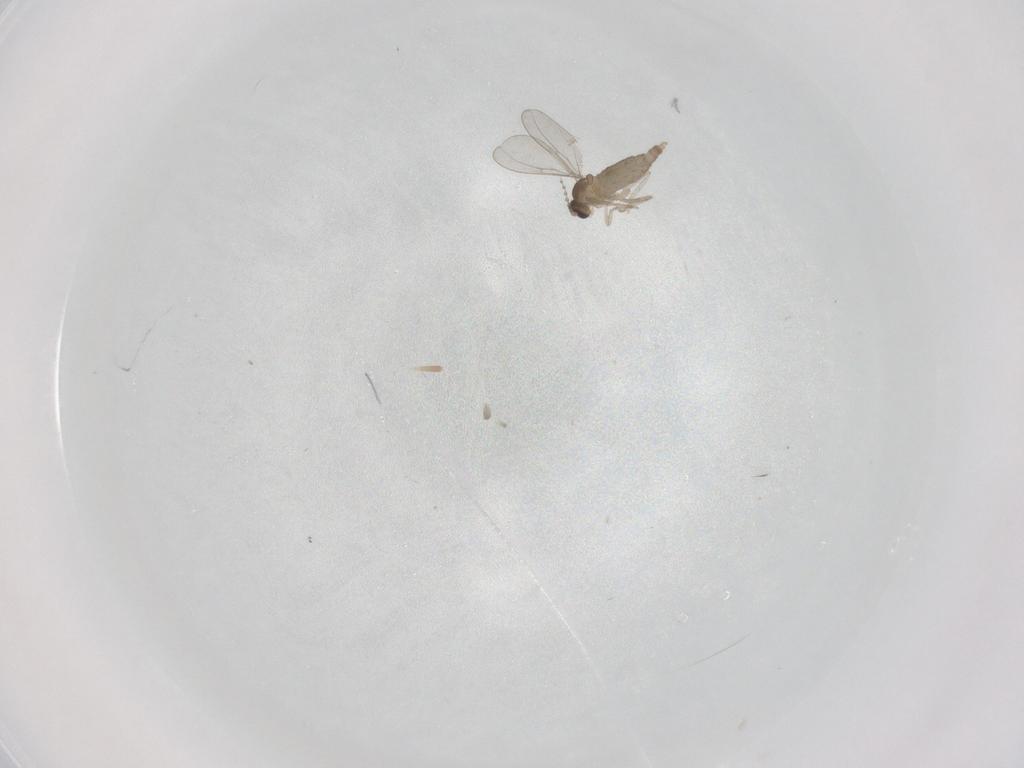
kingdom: Animalia
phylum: Arthropoda
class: Insecta
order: Diptera
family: Cecidomyiidae
